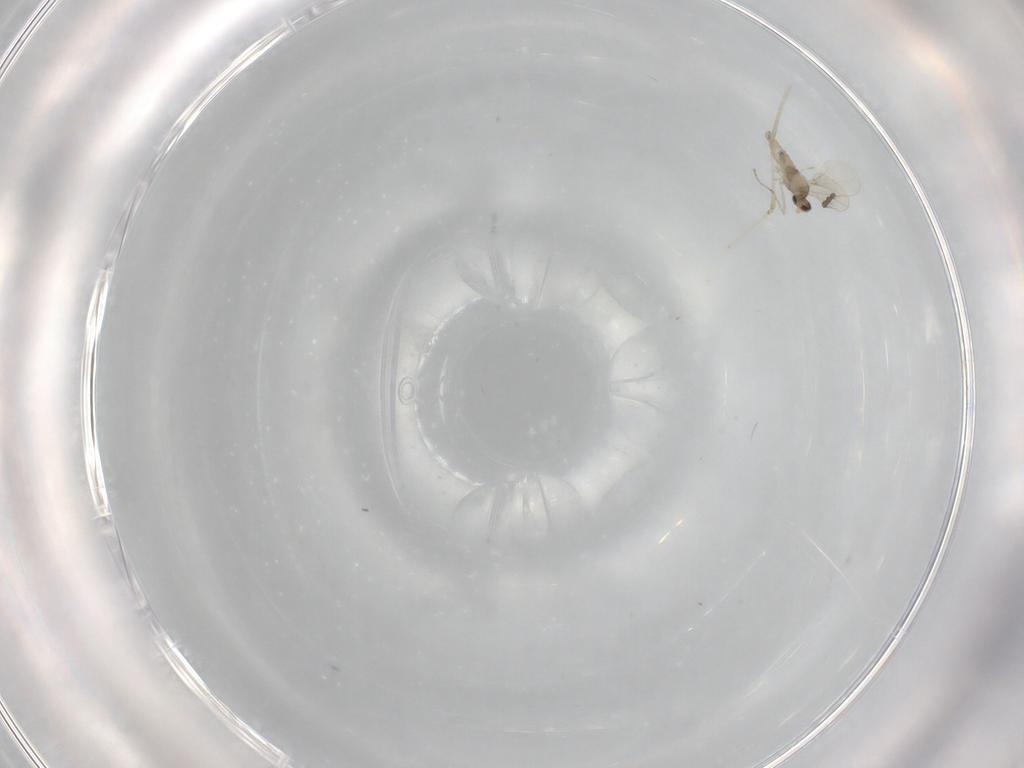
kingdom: Animalia
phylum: Arthropoda
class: Insecta
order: Diptera
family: Cecidomyiidae
